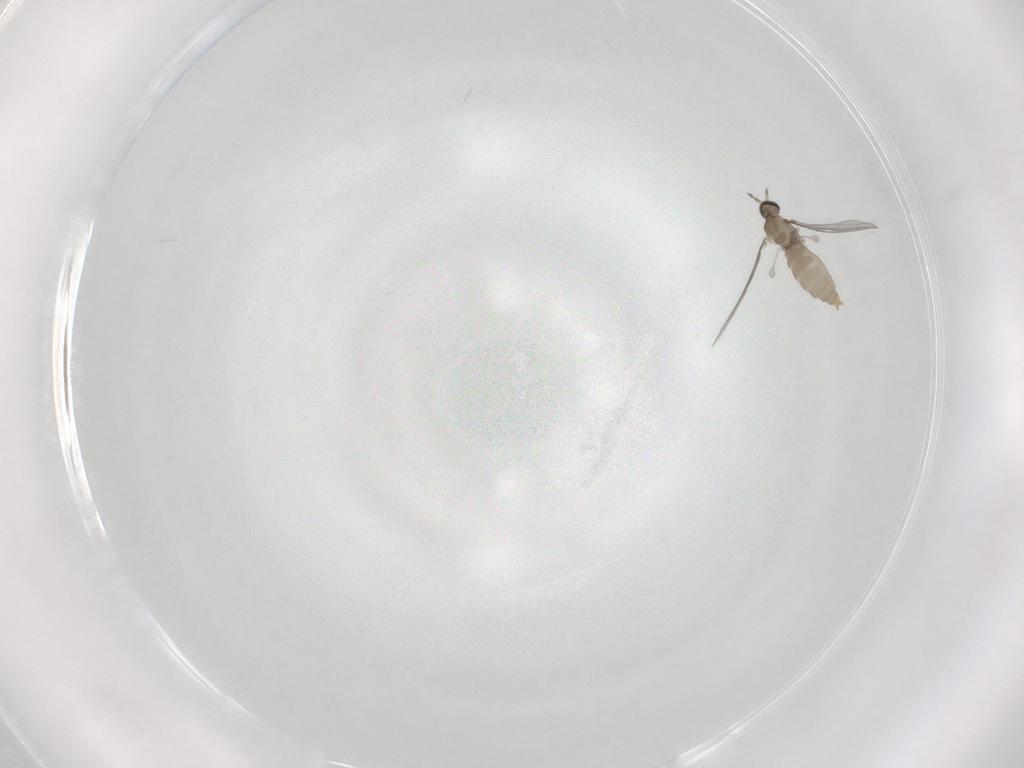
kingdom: Animalia
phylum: Arthropoda
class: Insecta
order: Diptera
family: Cecidomyiidae
